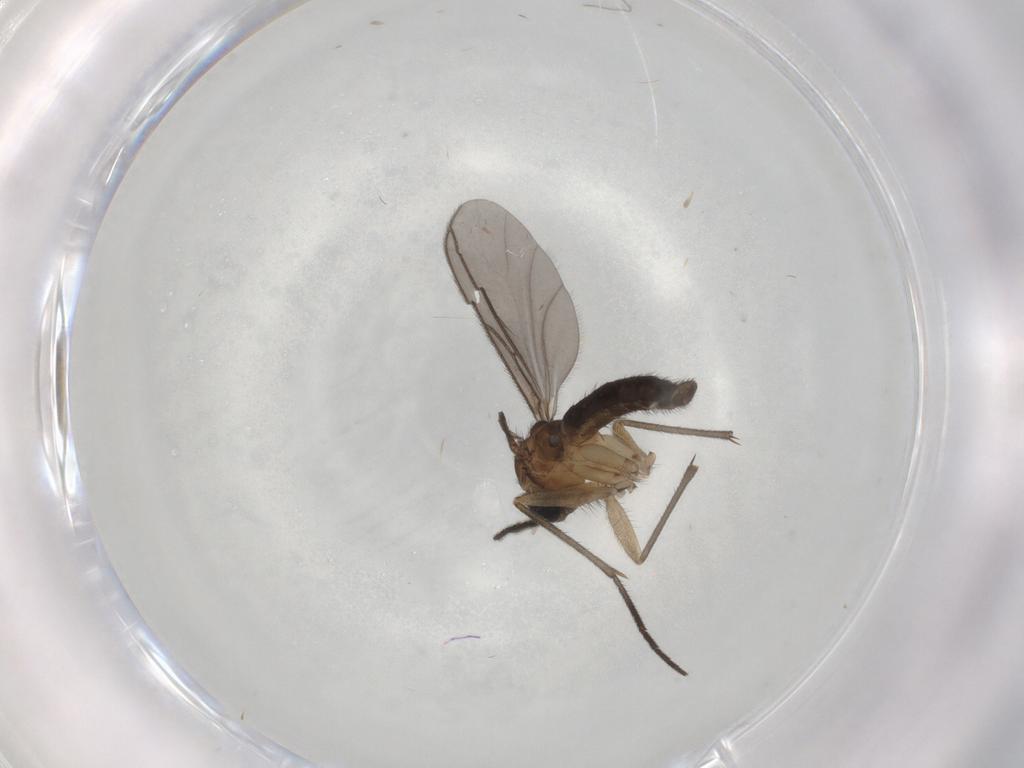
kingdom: Animalia
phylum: Arthropoda
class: Insecta
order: Diptera
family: Sciaridae
